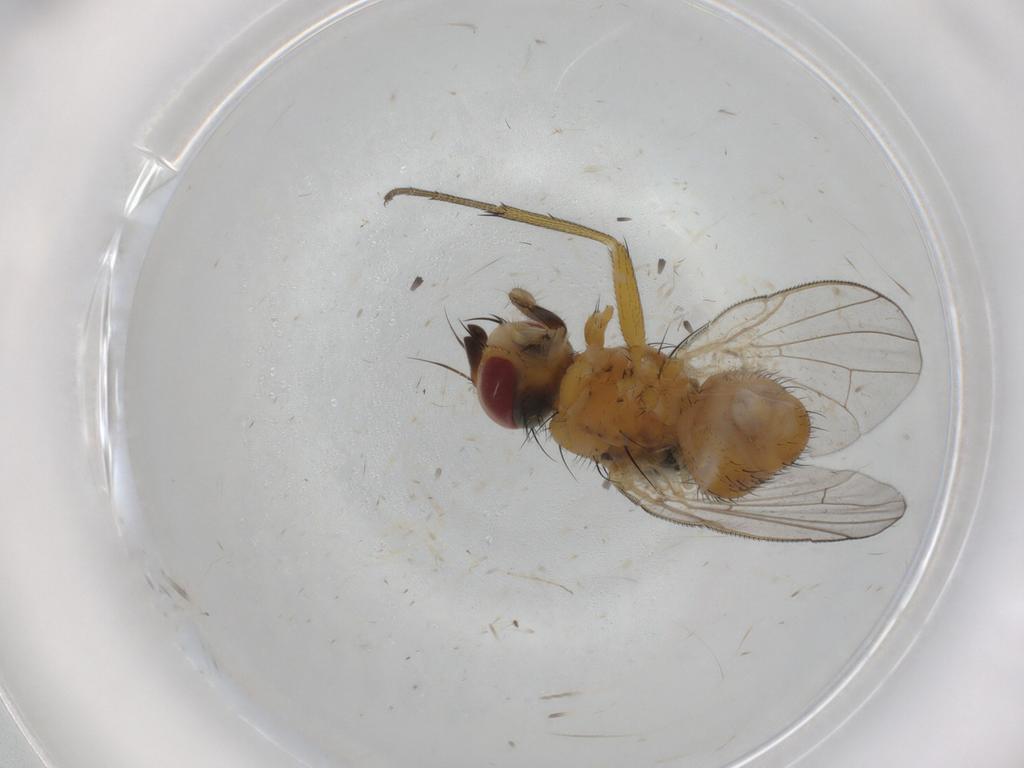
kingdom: Animalia
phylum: Arthropoda
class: Insecta
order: Diptera
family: Muscidae
